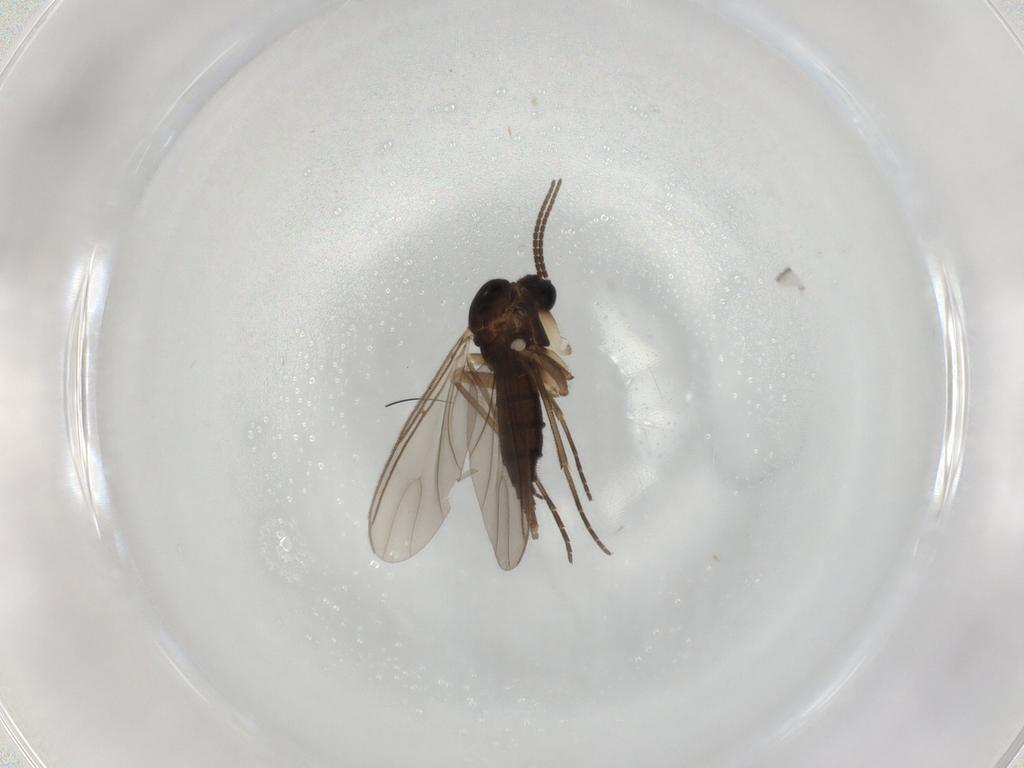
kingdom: Animalia
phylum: Arthropoda
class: Insecta
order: Diptera
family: Sciaridae
